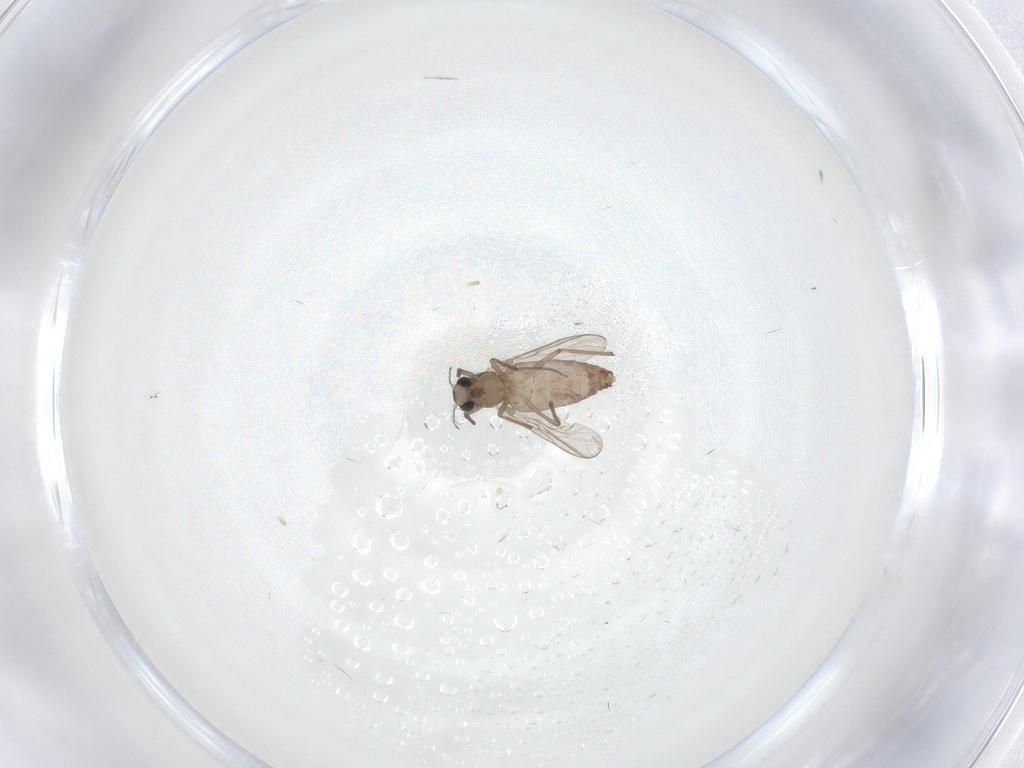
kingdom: Animalia
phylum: Arthropoda
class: Insecta
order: Diptera
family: Chironomidae
